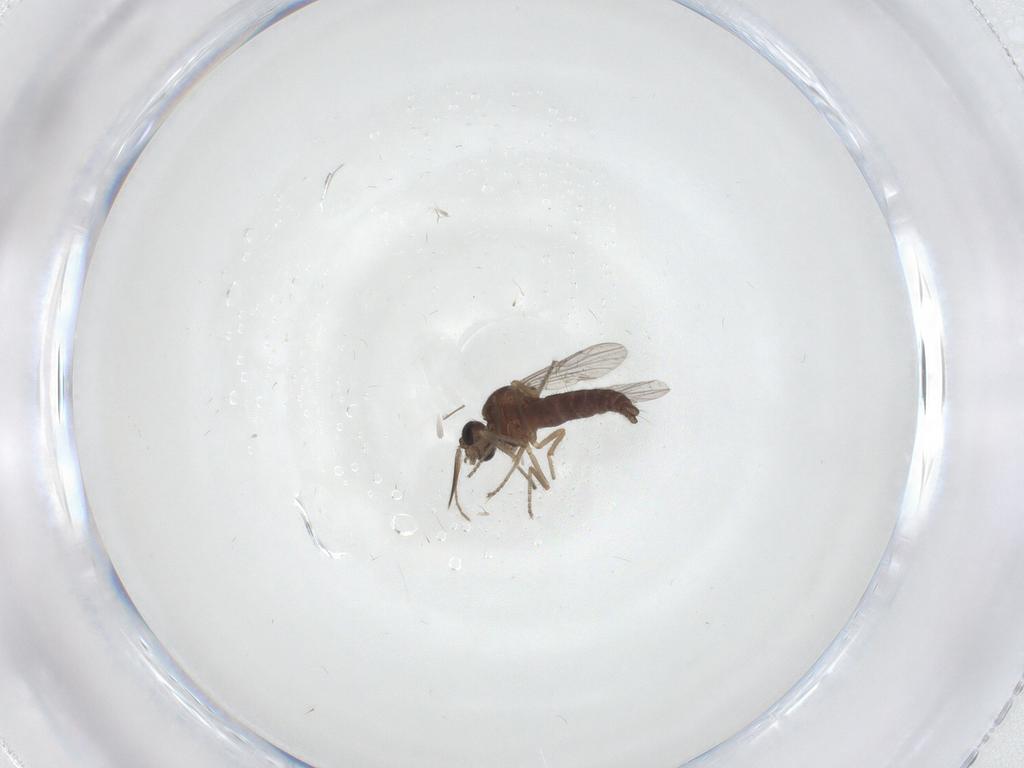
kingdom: Animalia
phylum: Arthropoda
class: Insecta
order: Diptera
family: Ceratopogonidae
